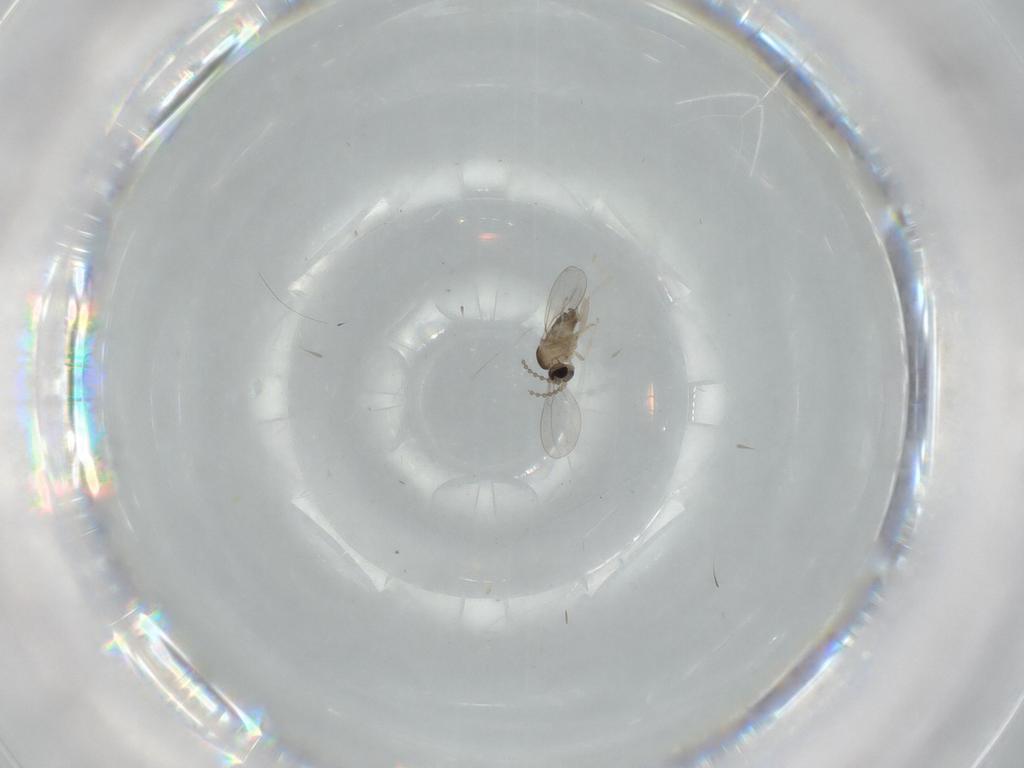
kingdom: Animalia
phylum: Arthropoda
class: Insecta
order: Diptera
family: Cecidomyiidae
